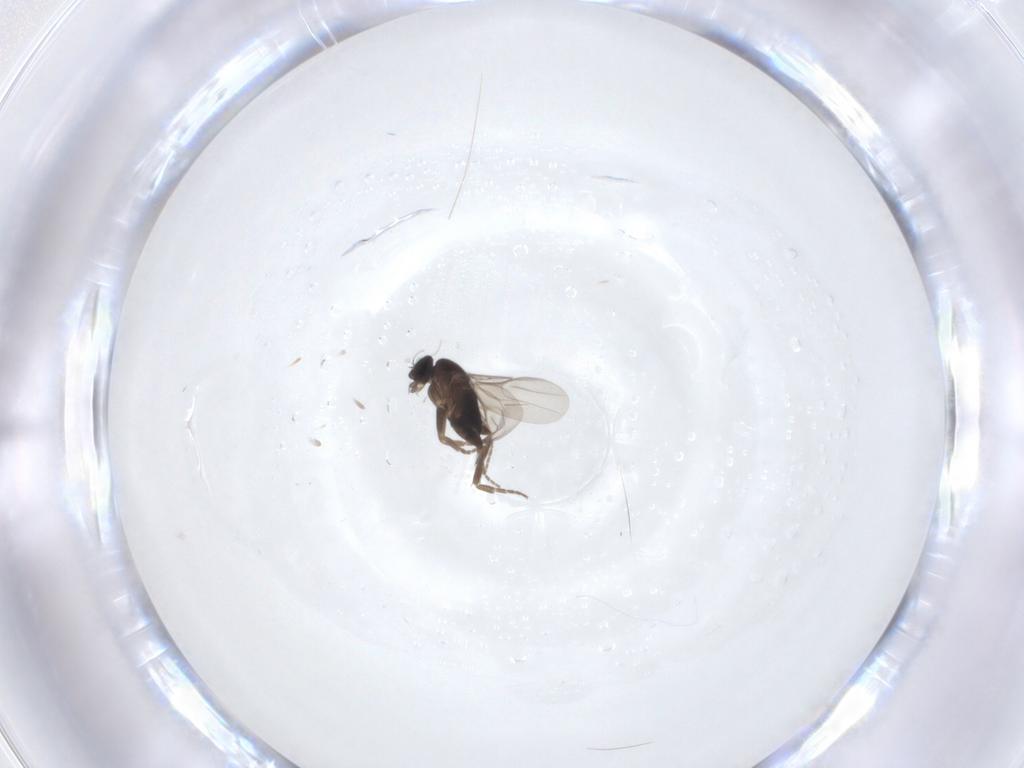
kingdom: Animalia
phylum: Arthropoda
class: Insecta
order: Diptera
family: Phoridae
